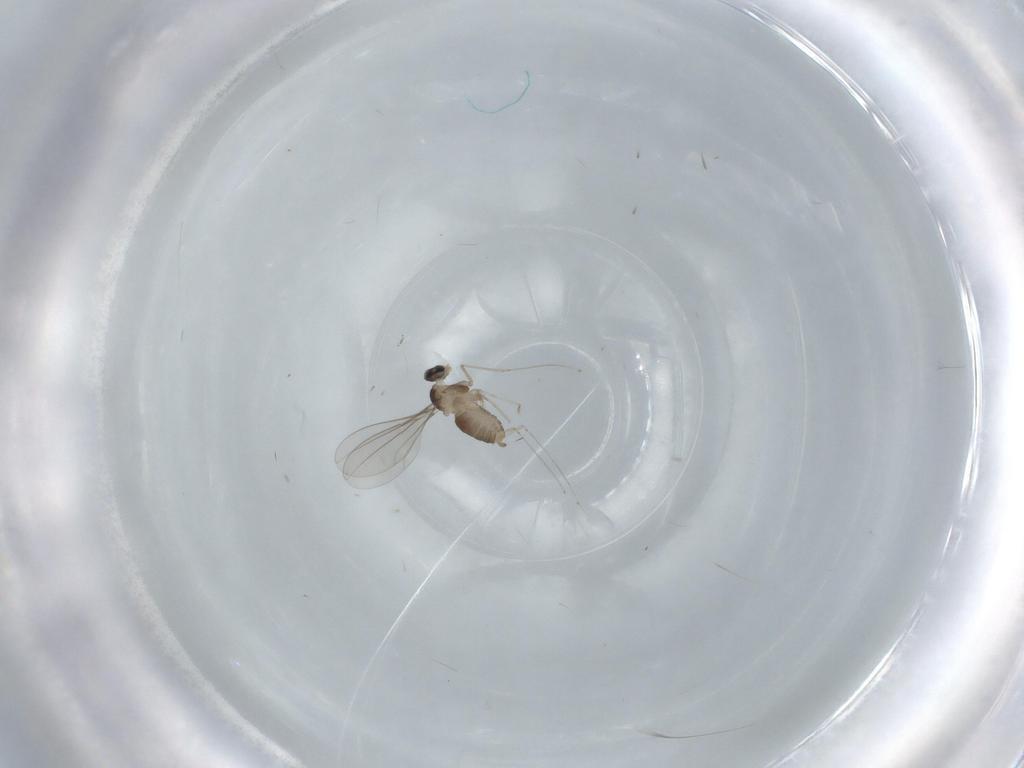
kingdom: Animalia
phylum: Arthropoda
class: Insecta
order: Diptera
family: Cecidomyiidae
